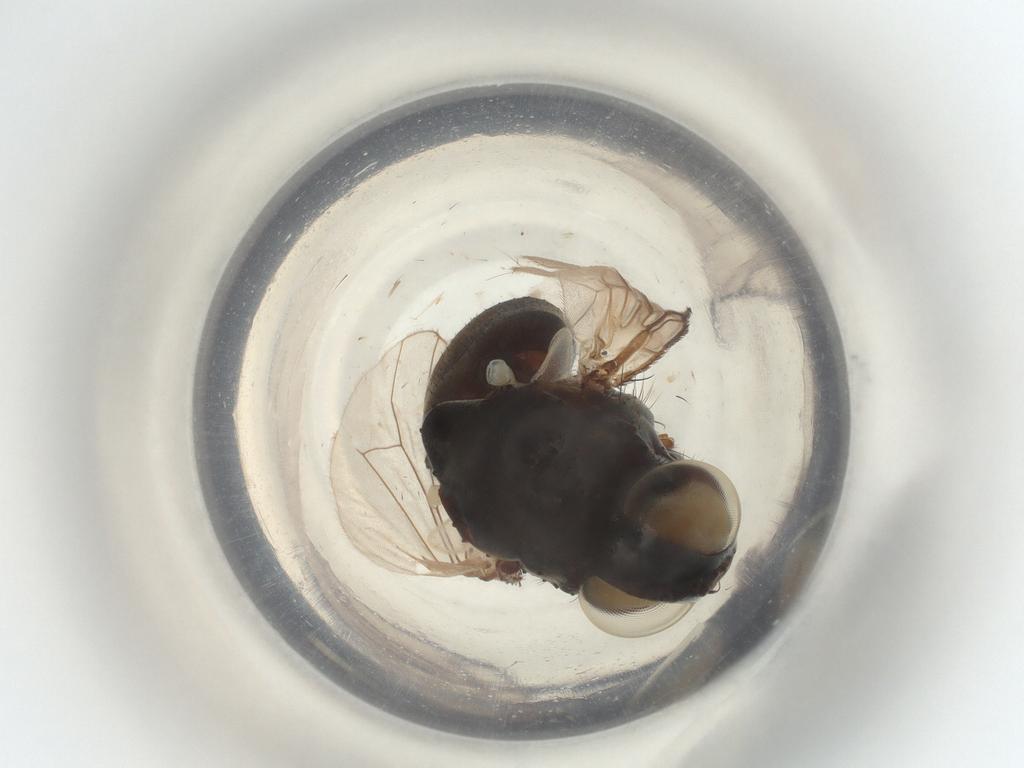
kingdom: Animalia
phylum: Arthropoda
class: Insecta
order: Diptera
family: Muscidae
